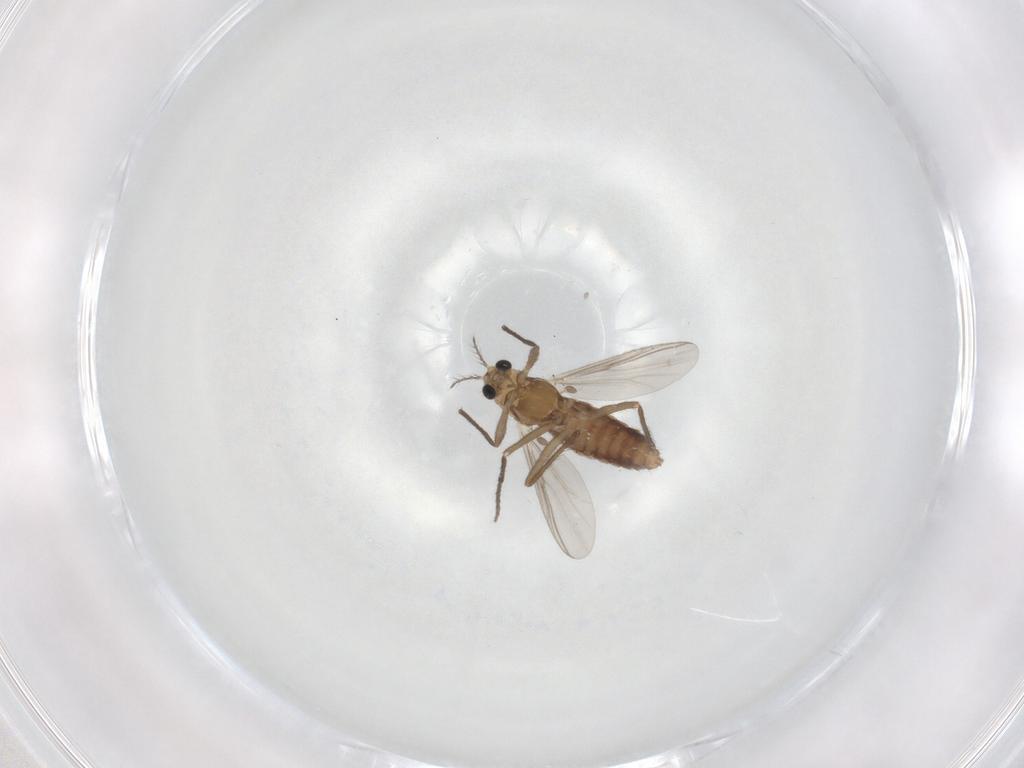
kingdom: Animalia
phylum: Arthropoda
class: Insecta
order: Diptera
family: Chironomidae
